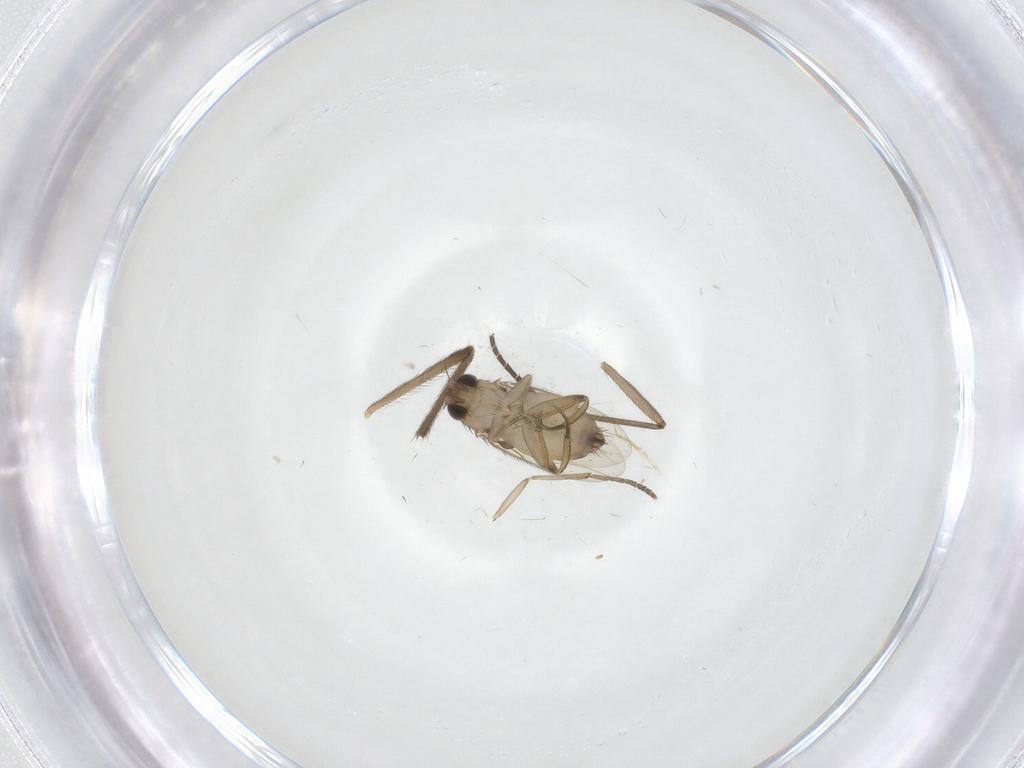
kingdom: Animalia
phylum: Arthropoda
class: Insecta
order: Diptera
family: Chironomidae
